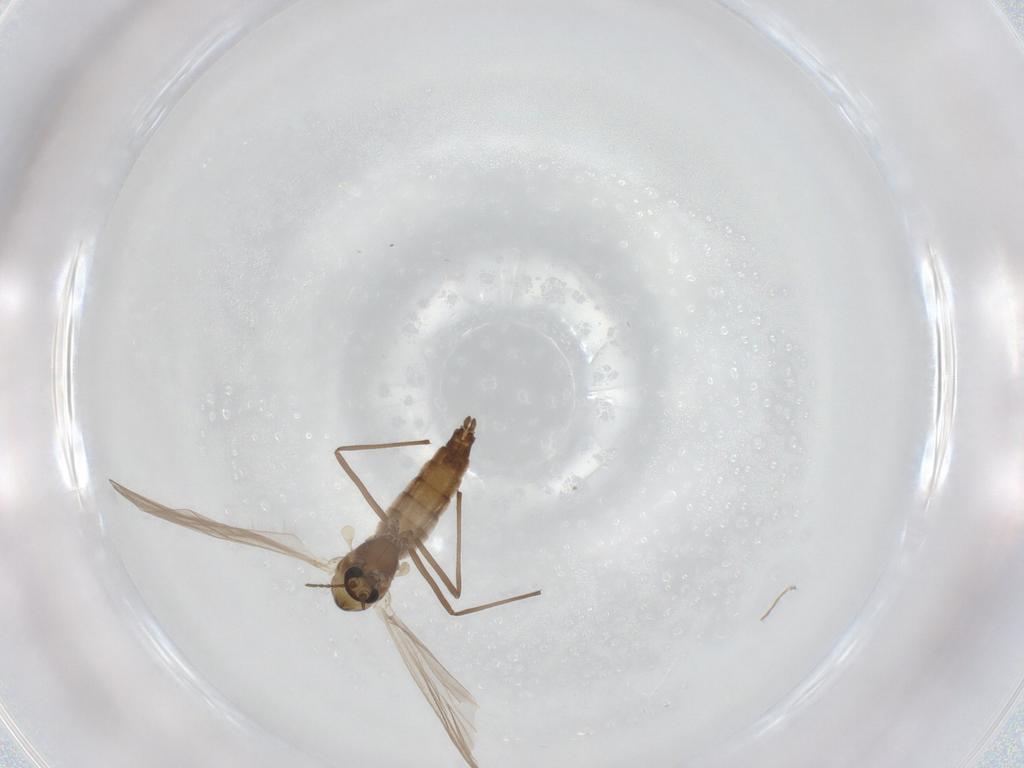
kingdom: Animalia
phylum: Arthropoda
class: Insecta
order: Diptera
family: Chironomidae
